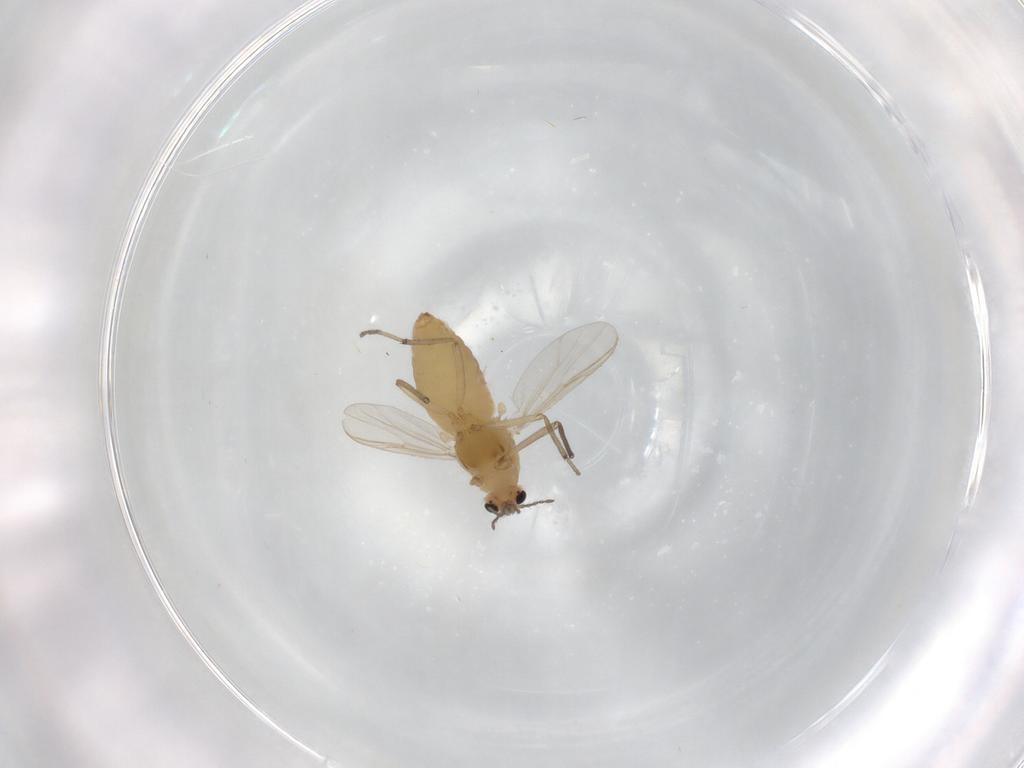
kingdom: Animalia
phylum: Arthropoda
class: Insecta
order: Diptera
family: Chironomidae
